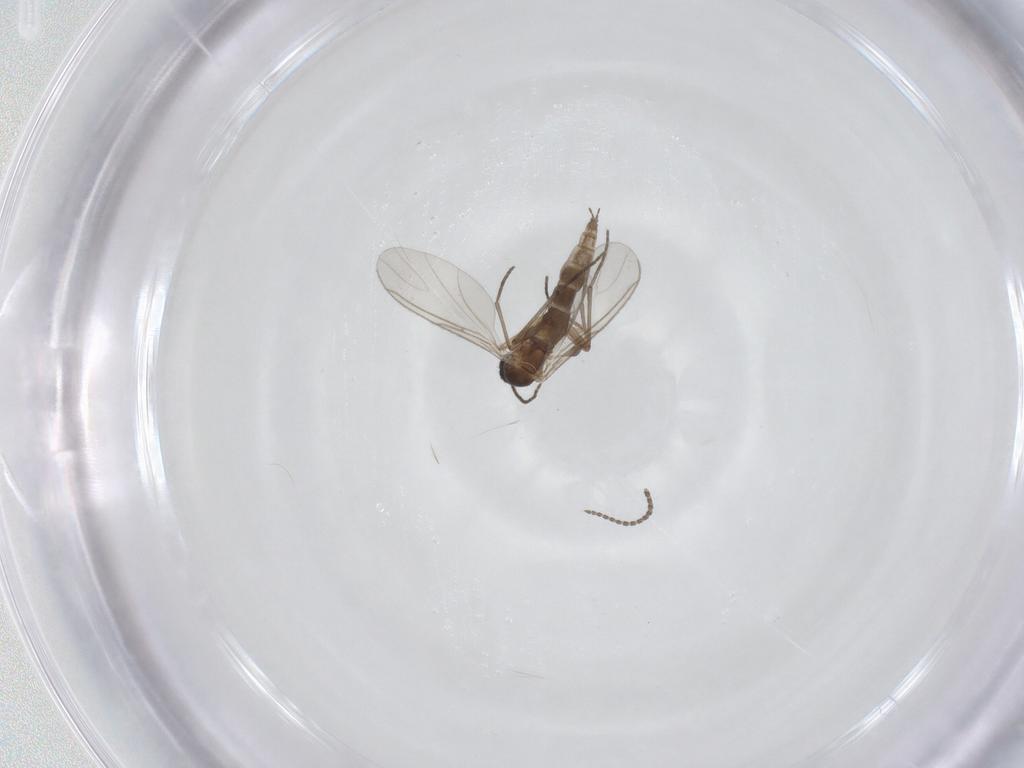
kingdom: Animalia
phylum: Arthropoda
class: Insecta
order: Diptera
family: Sciaridae
